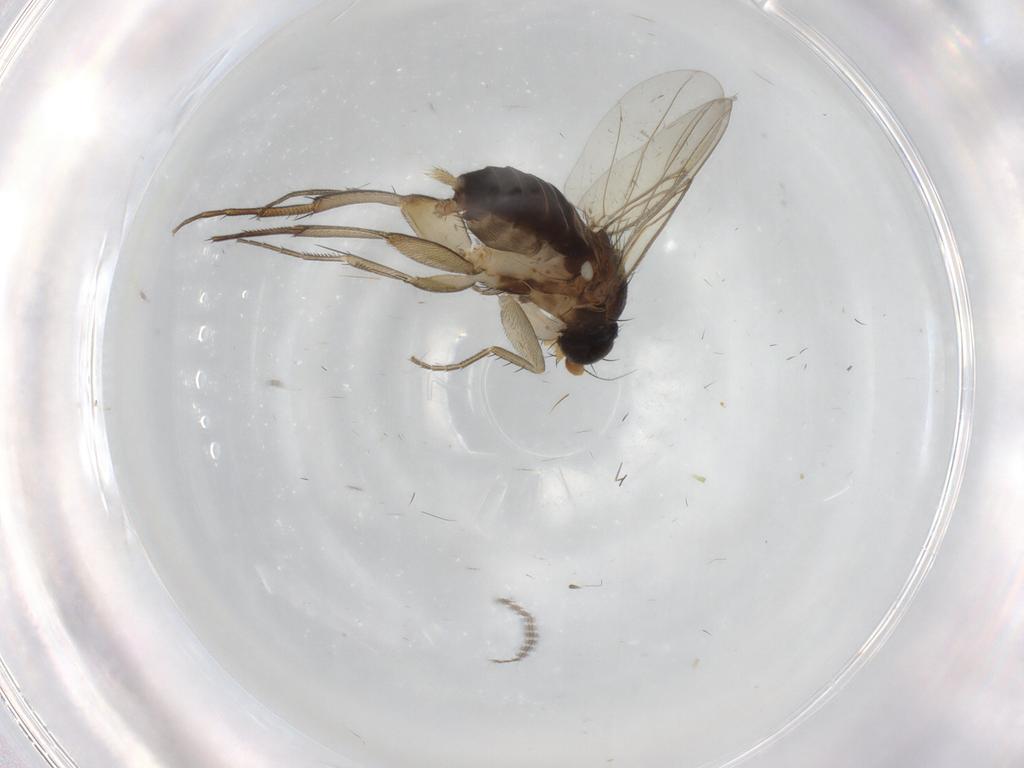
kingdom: Animalia
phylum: Arthropoda
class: Insecta
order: Diptera
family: Phoridae
